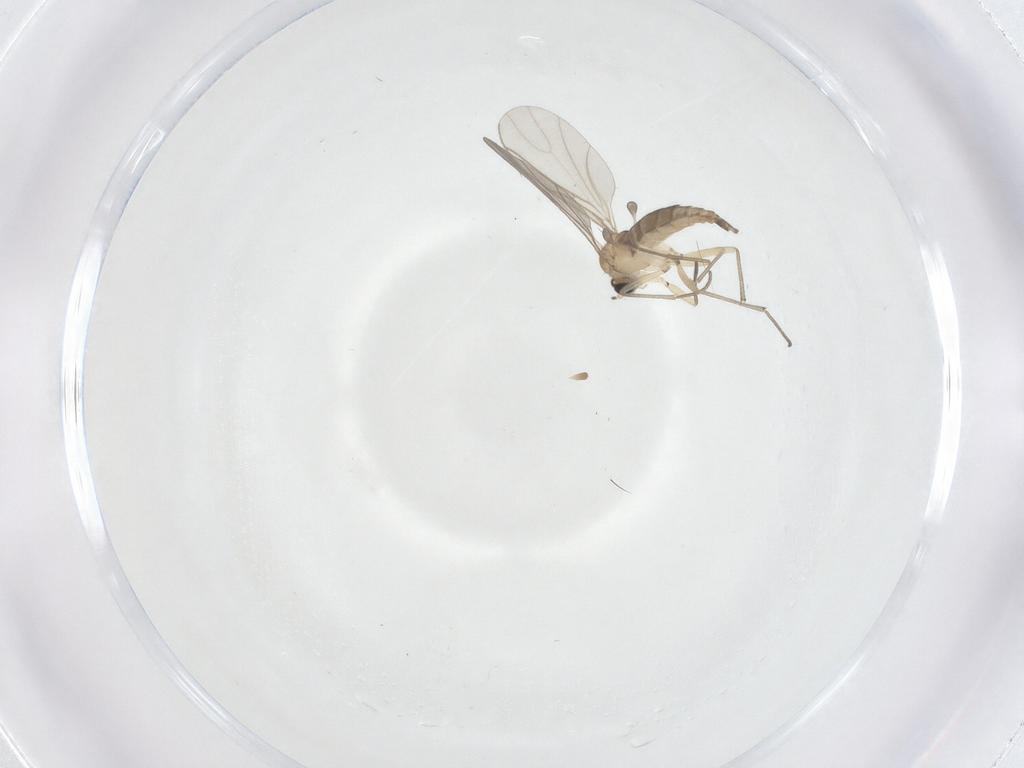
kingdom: Animalia
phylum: Arthropoda
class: Insecta
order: Diptera
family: Sciaridae
